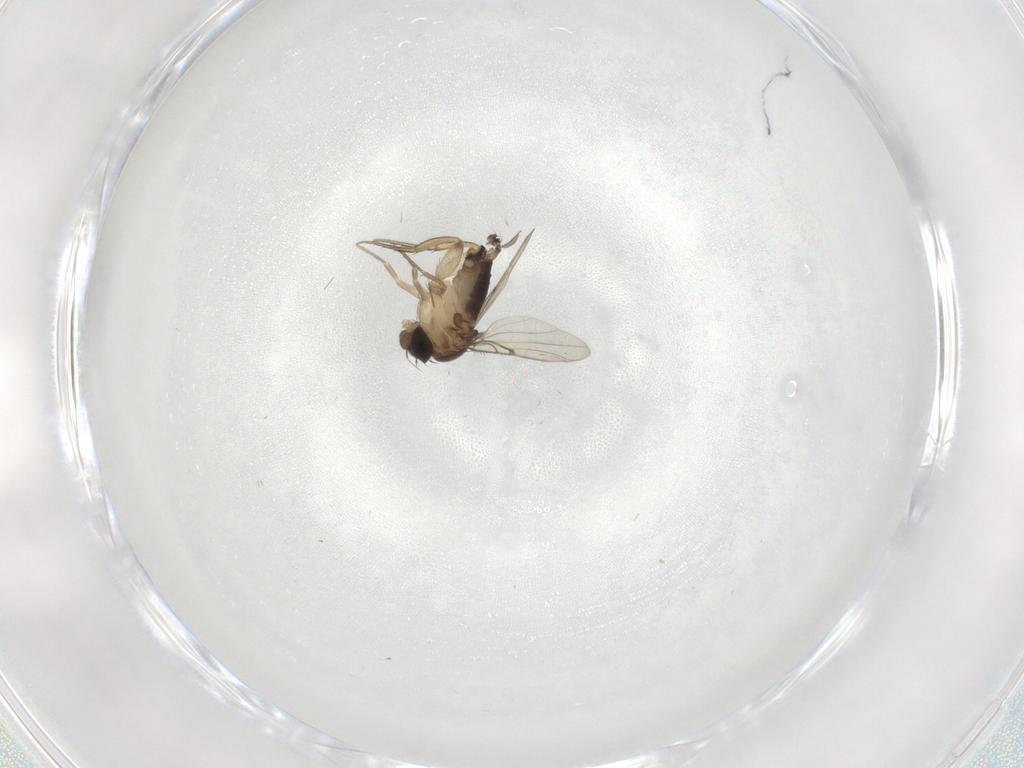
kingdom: Animalia
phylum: Arthropoda
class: Insecta
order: Diptera
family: Chironomidae
